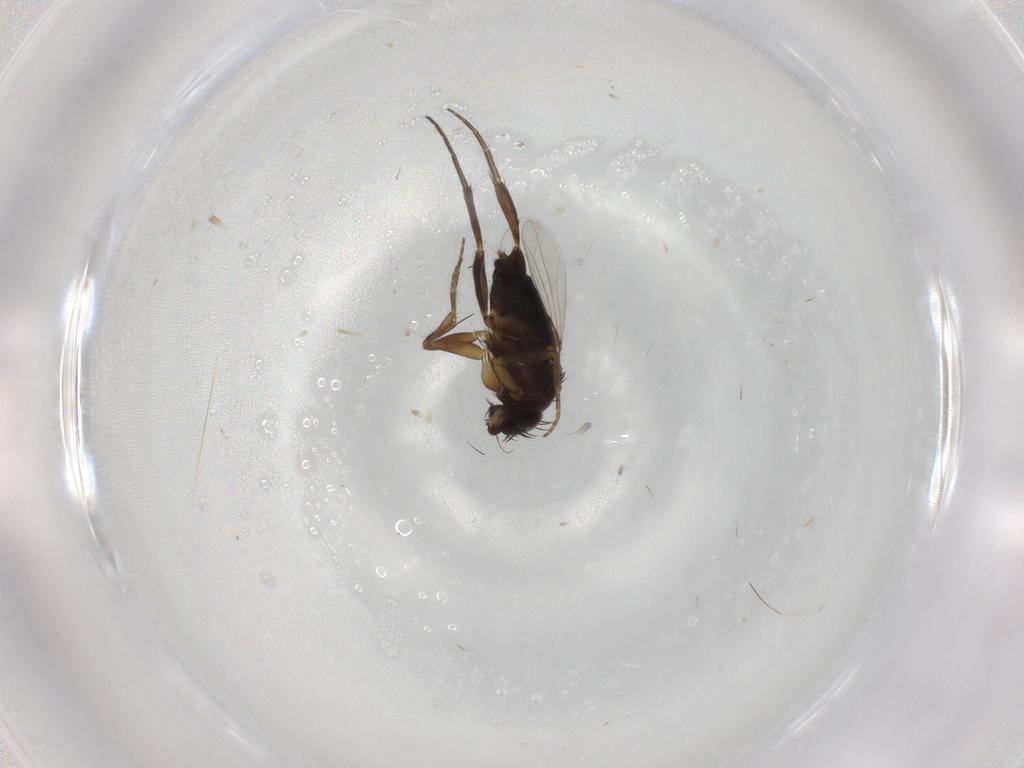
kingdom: Animalia
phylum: Arthropoda
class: Insecta
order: Diptera
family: Phoridae
